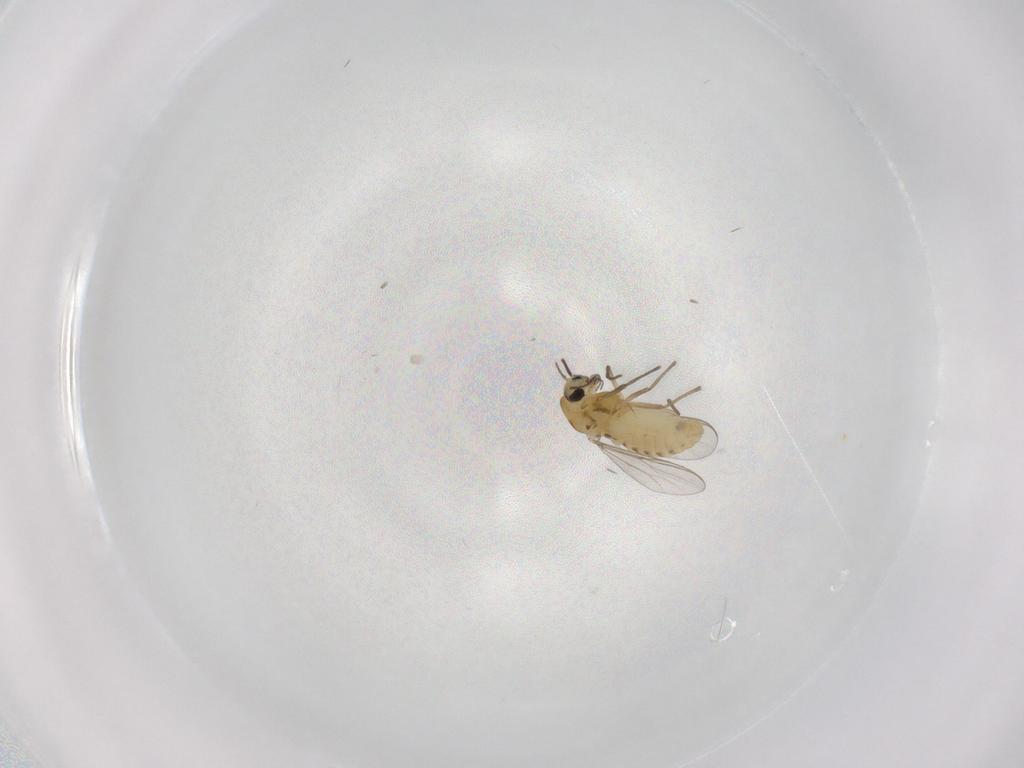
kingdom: Animalia
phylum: Arthropoda
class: Insecta
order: Diptera
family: Chironomidae
